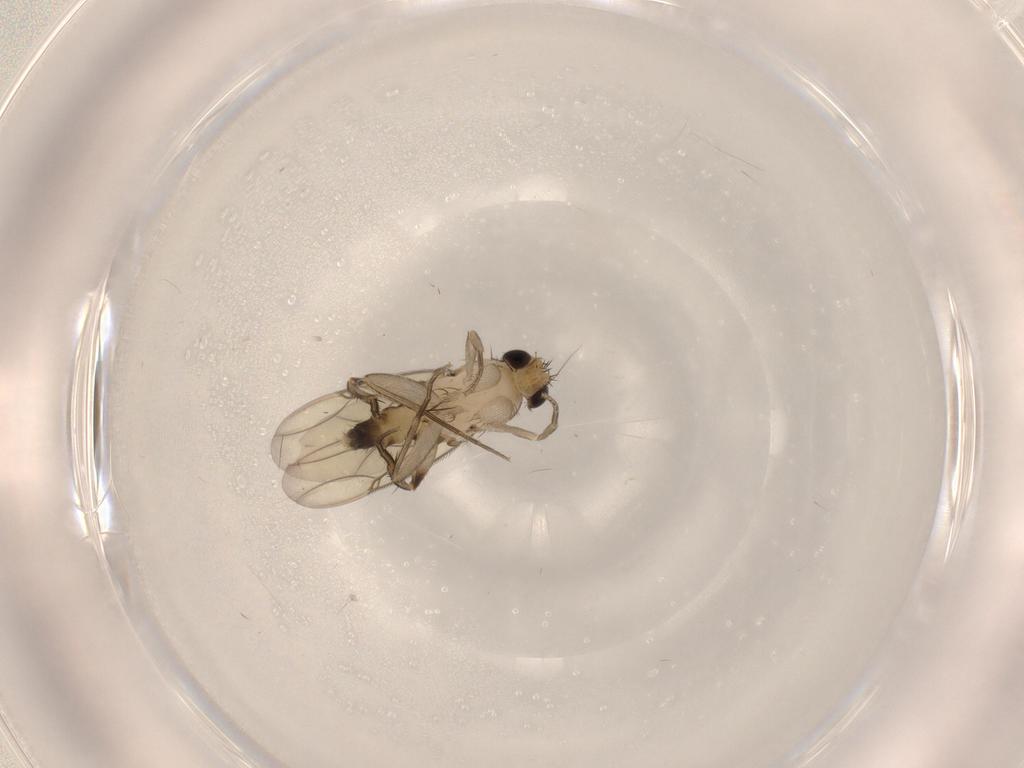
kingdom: Animalia
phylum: Arthropoda
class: Insecta
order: Diptera
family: Phoridae
